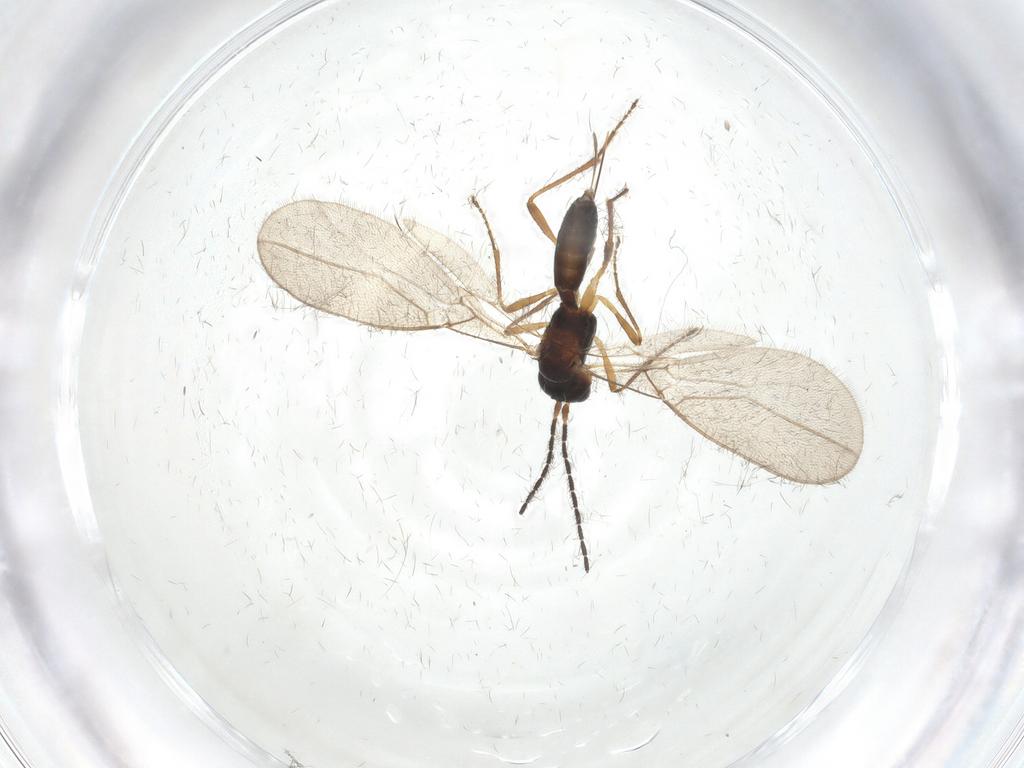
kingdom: Animalia
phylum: Arthropoda
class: Insecta
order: Hymenoptera
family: Braconidae
